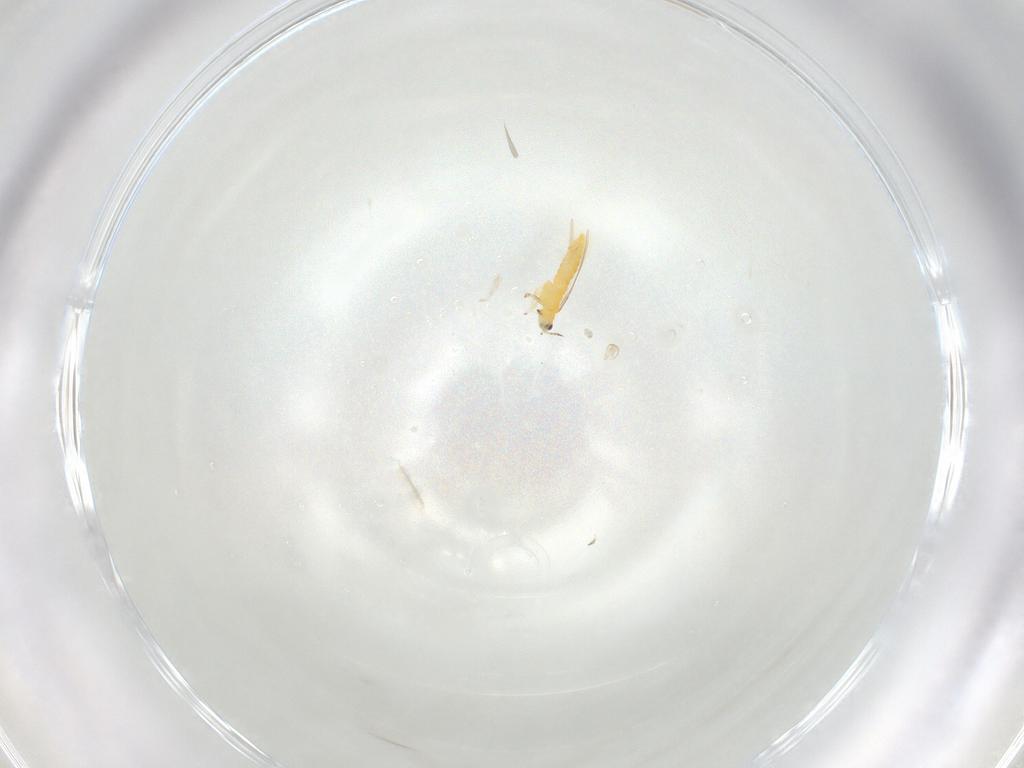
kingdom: Animalia
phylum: Arthropoda
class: Insecta
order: Thysanoptera
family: Thripidae
